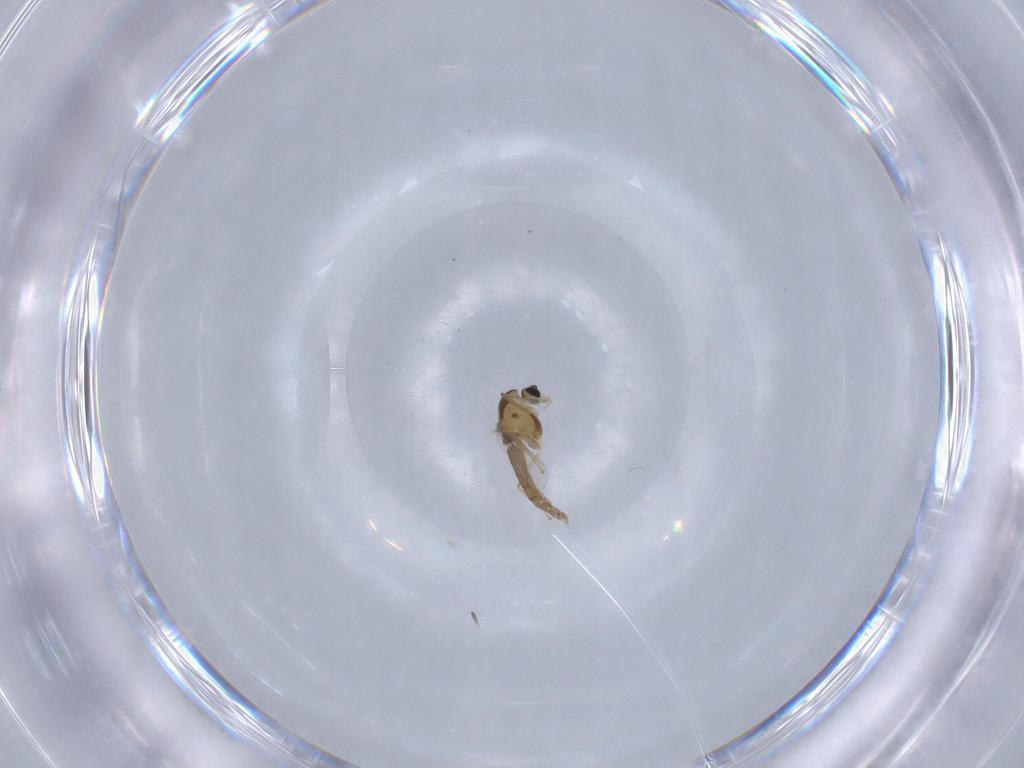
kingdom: Animalia
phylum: Arthropoda
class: Insecta
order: Diptera
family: Chironomidae
